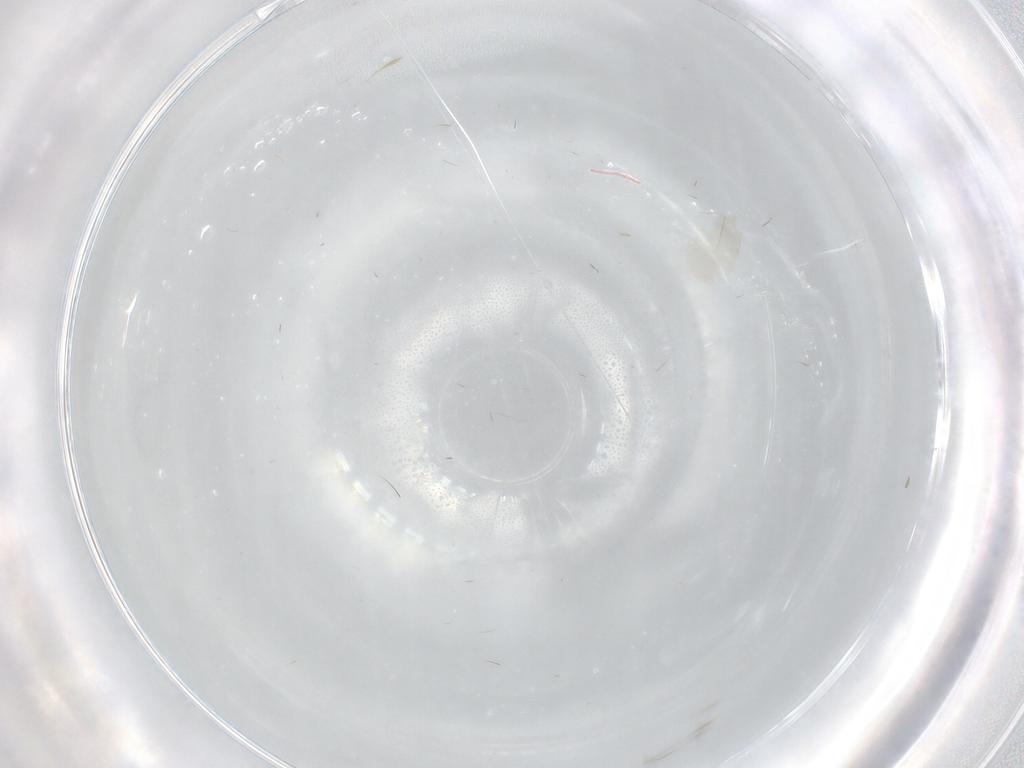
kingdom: Animalia
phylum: Arthropoda
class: Insecta
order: Diptera
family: Cecidomyiidae
